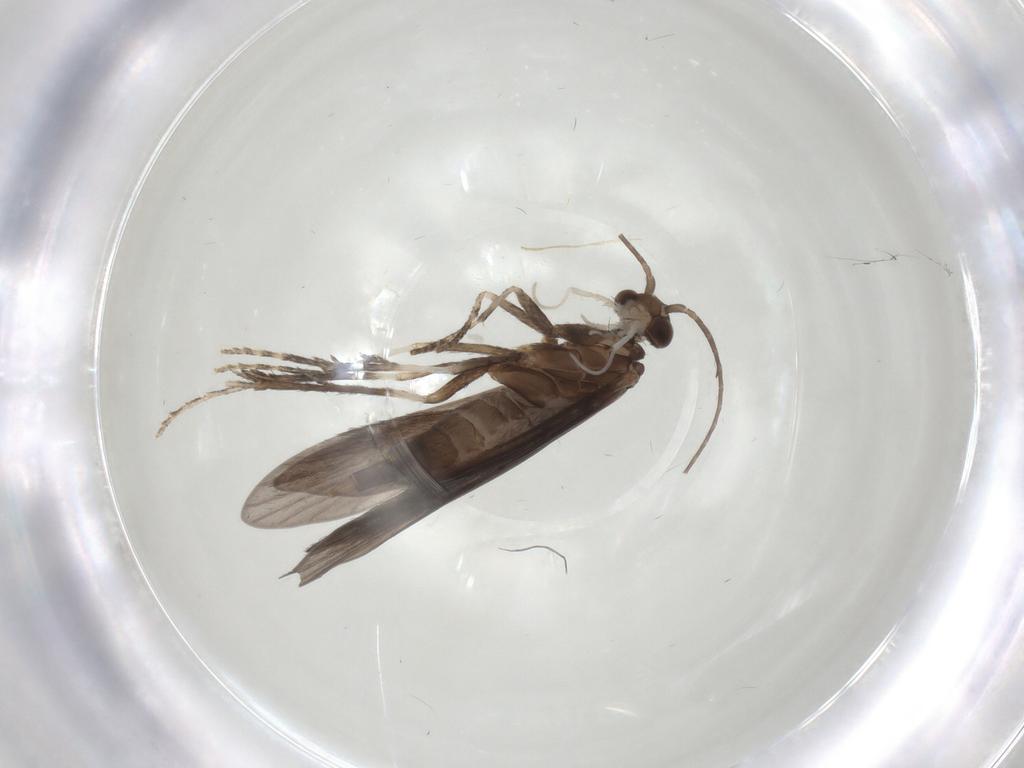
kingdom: Animalia
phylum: Arthropoda
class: Insecta
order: Trichoptera
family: Xiphocentronidae
